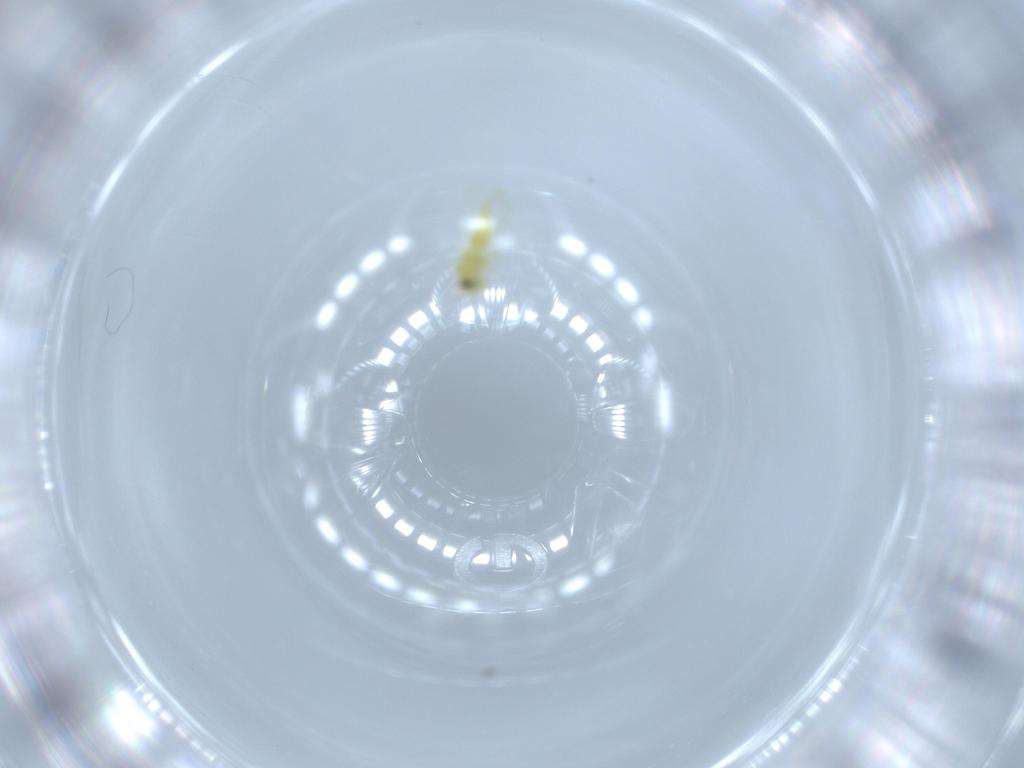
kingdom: Animalia
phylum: Arthropoda
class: Insecta
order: Hemiptera
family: Aleyrodidae
